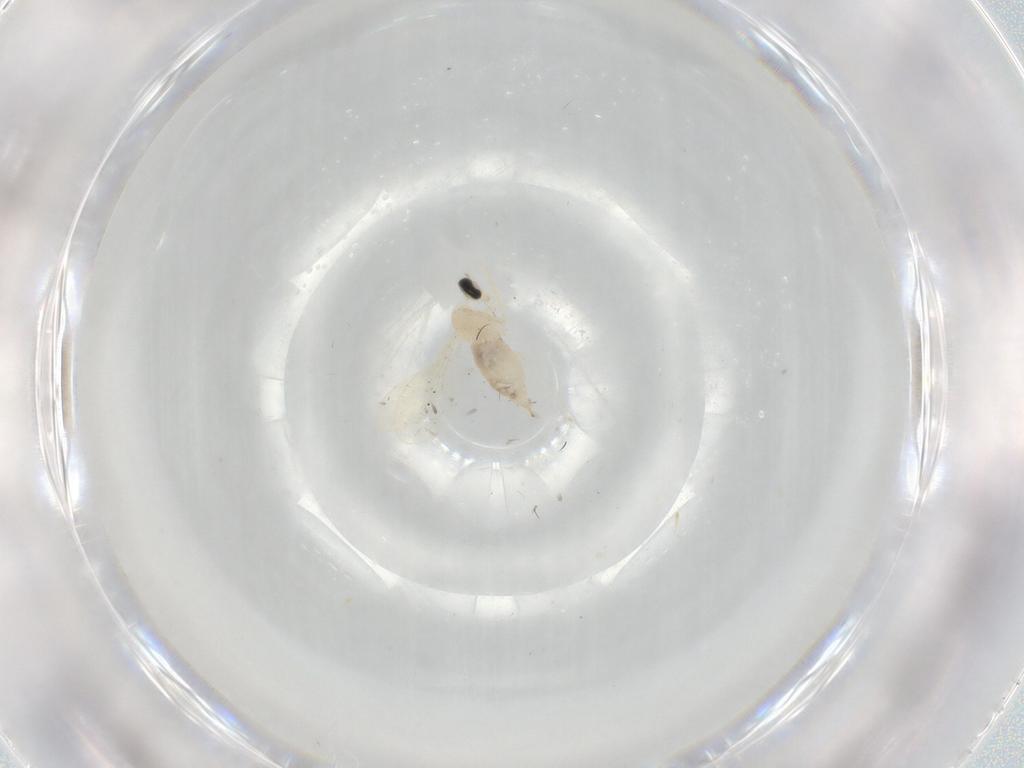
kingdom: Animalia
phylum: Arthropoda
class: Insecta
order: Diptera
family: Cecidomyiidae
